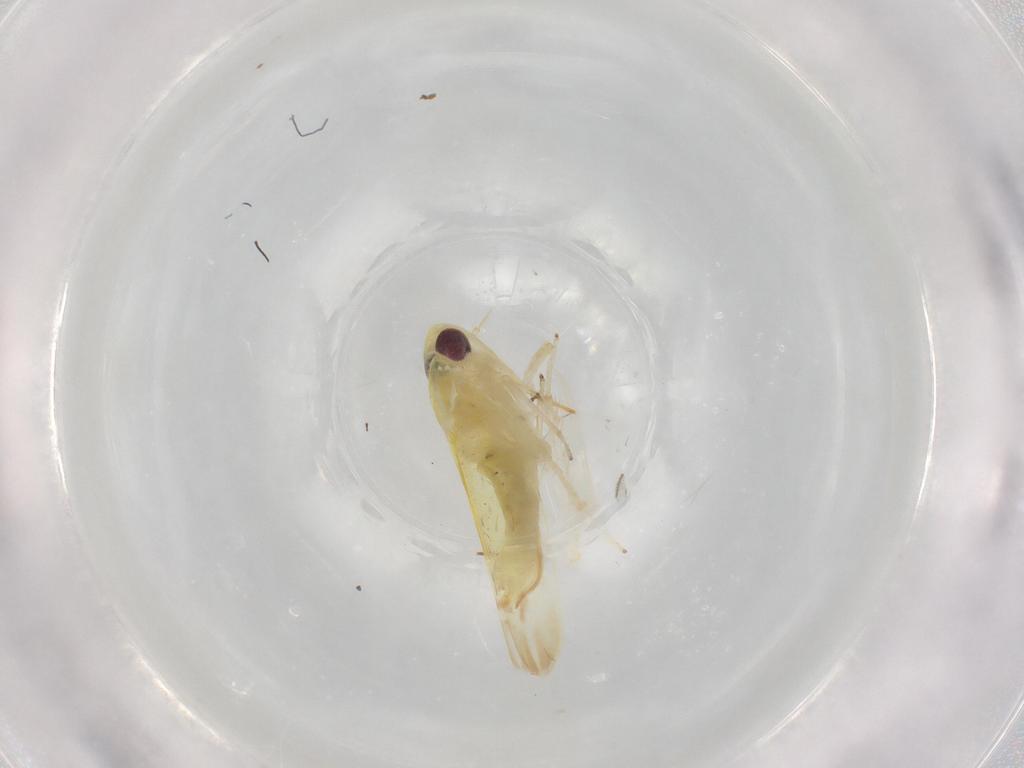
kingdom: Animalia
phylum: Arthropoda
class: Insecta
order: Hemiptera
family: Cicadellidae
